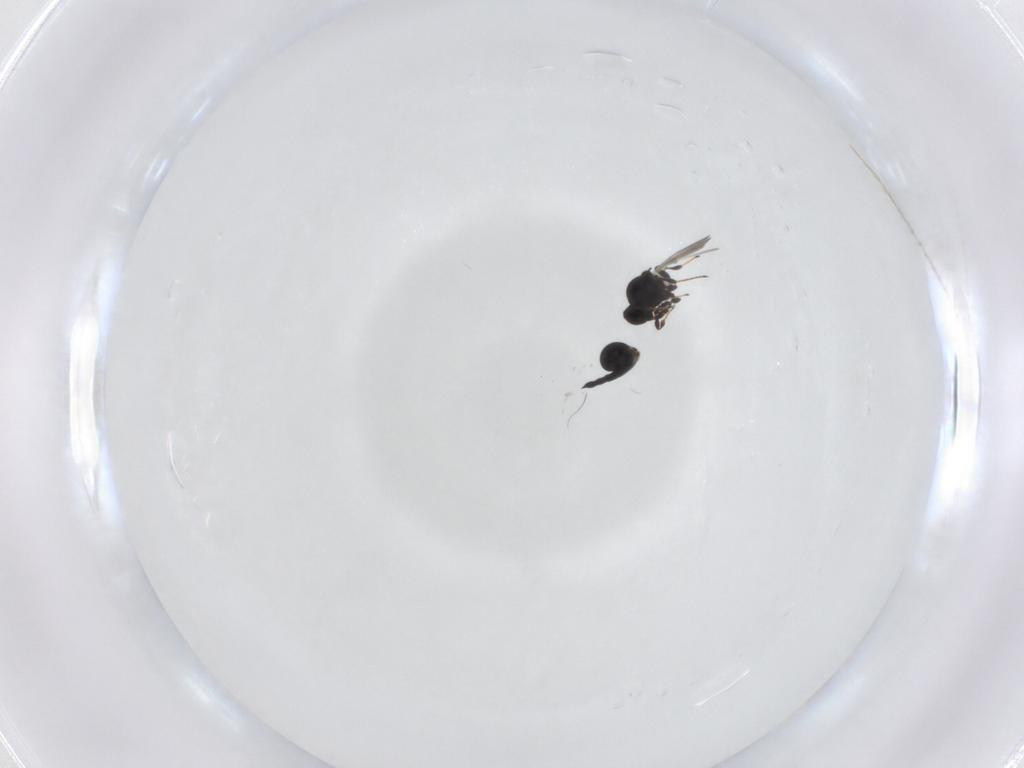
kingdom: Animalia
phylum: Arthropoda
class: Insecta
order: Hymenoptera
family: Platygastridae
